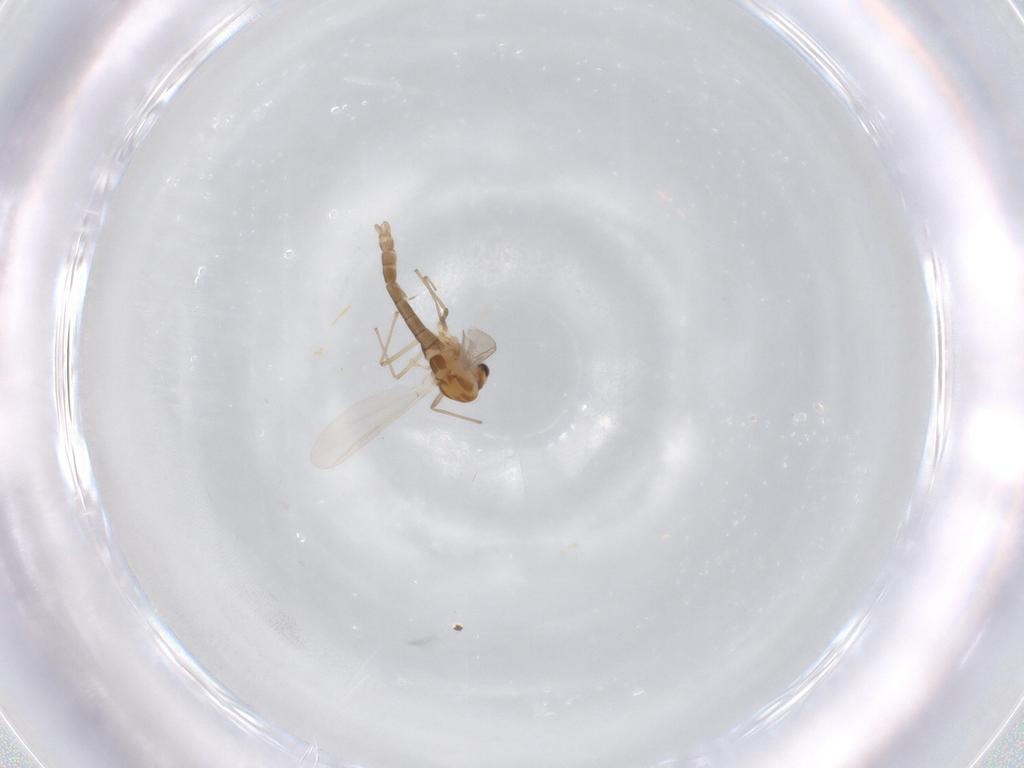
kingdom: Animalia
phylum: Arthropoda
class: Insecta
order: Diptera
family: Chironomidae
